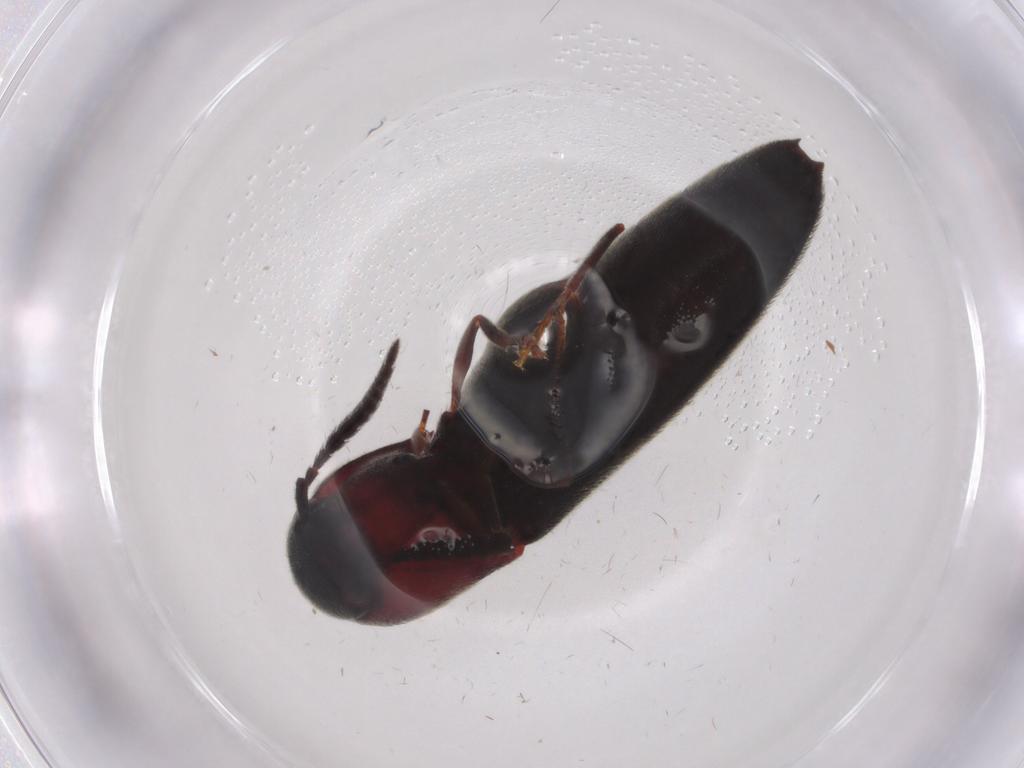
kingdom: Animalia
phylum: Arthropoda
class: Insecta
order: Coleoptera
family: Eucnemidae
